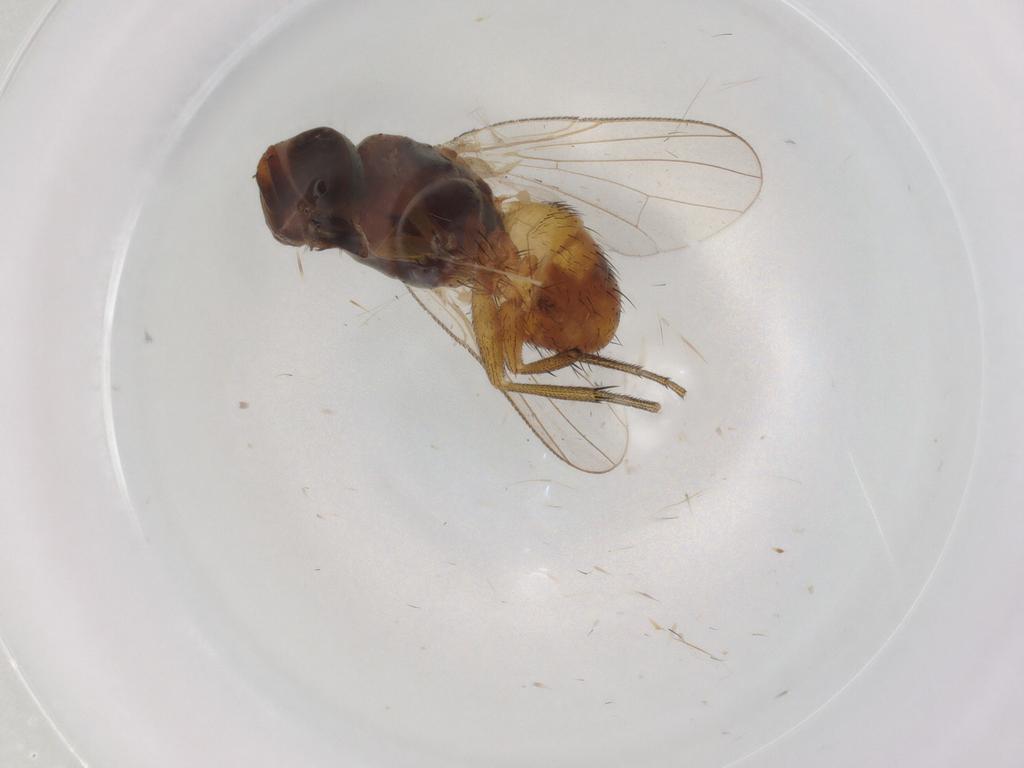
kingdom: Animalia
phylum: Arthropoda
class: Insecta
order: Diptera
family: Muscidae
